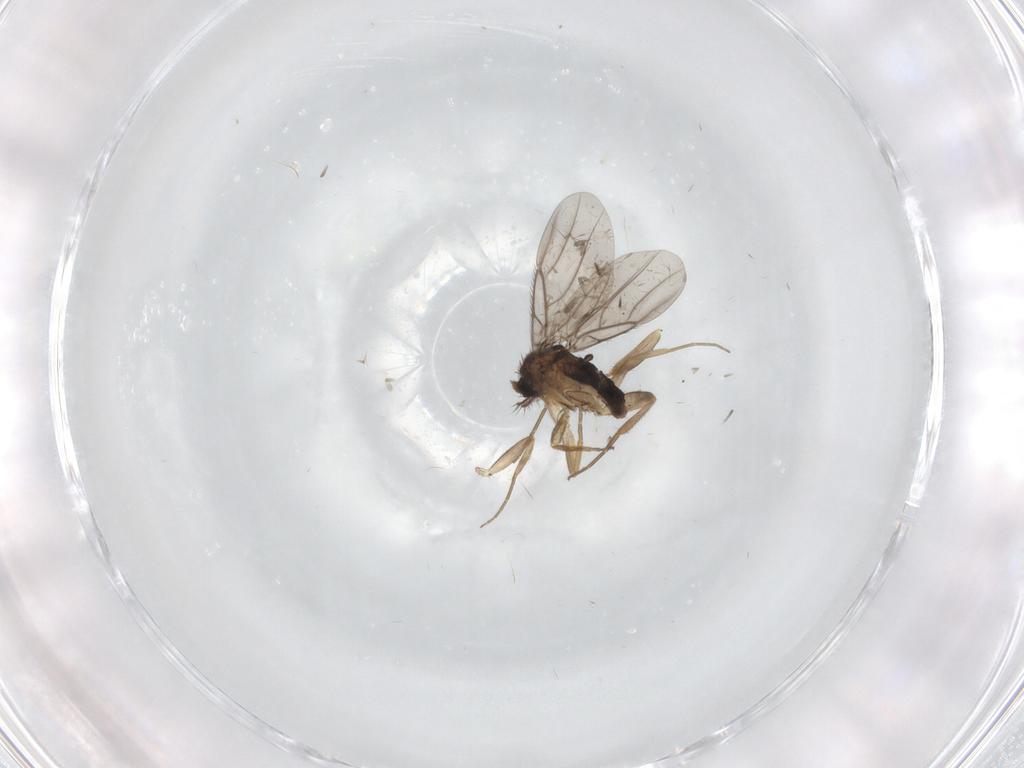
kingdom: Animalia
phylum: Arthropoda
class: Insecta
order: Diptera
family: Phoridae
